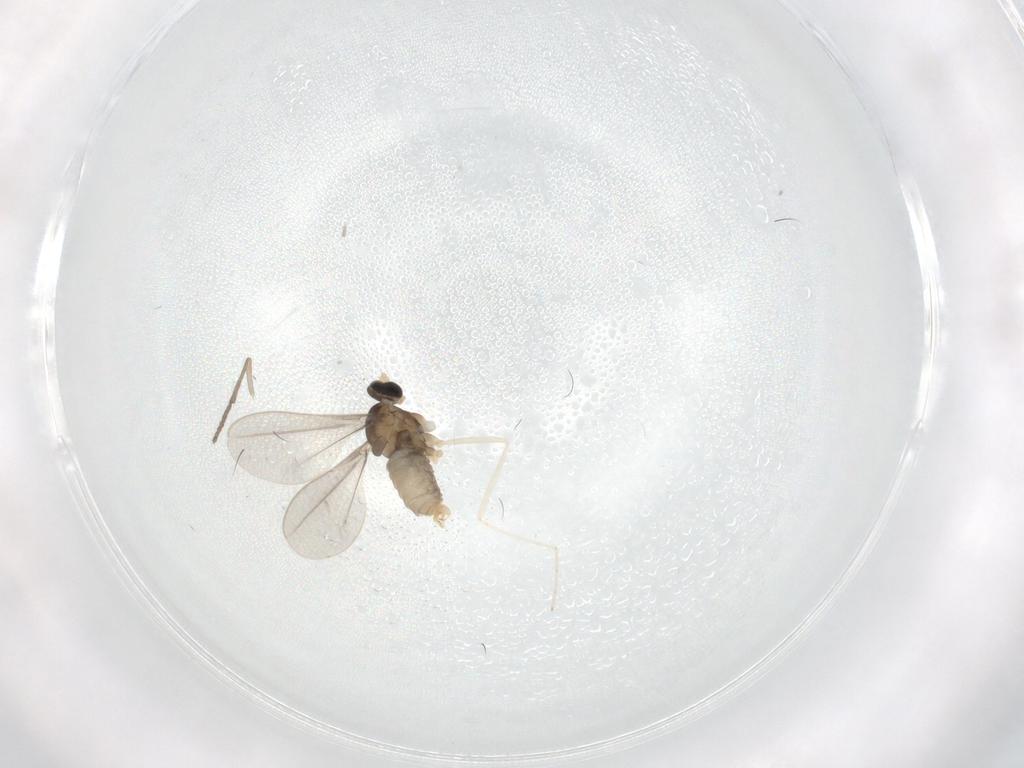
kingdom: Animalia
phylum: Arthropoda
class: Insecta
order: Diptera
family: Cecidomyiidae
